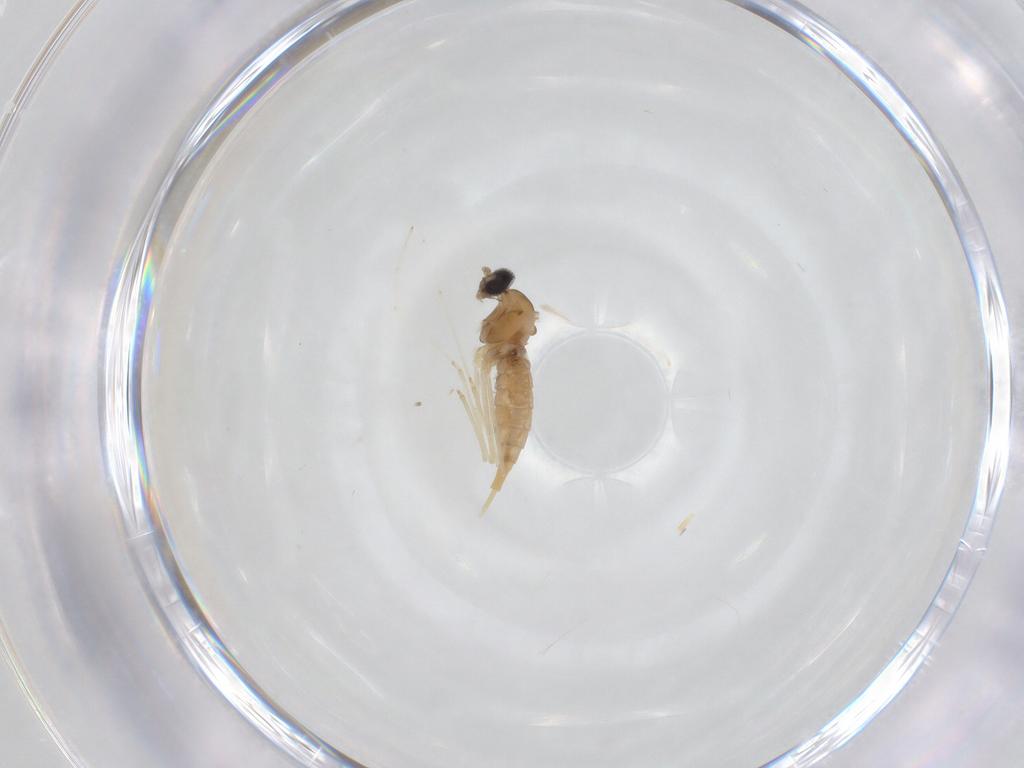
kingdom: Animalia
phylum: Arthropoda
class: Insecta
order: Diptera
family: Cecidomyiidae
